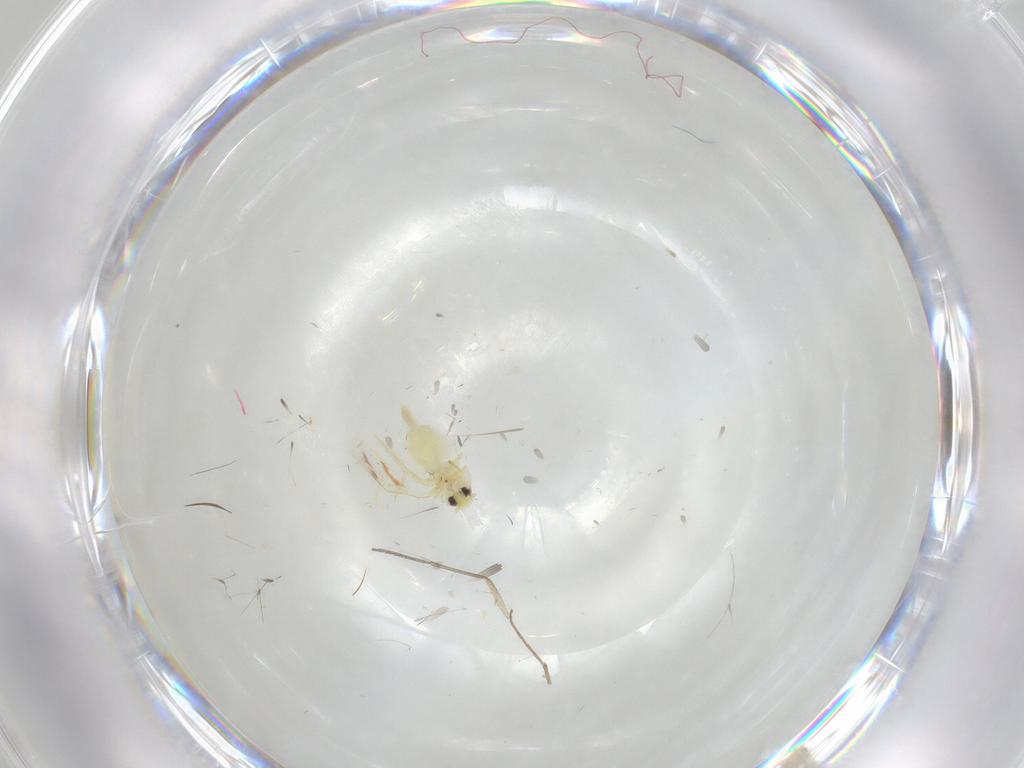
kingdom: Animalia
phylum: Arthropoda
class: Insecta
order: Hemiptera
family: Aleyrodidae
